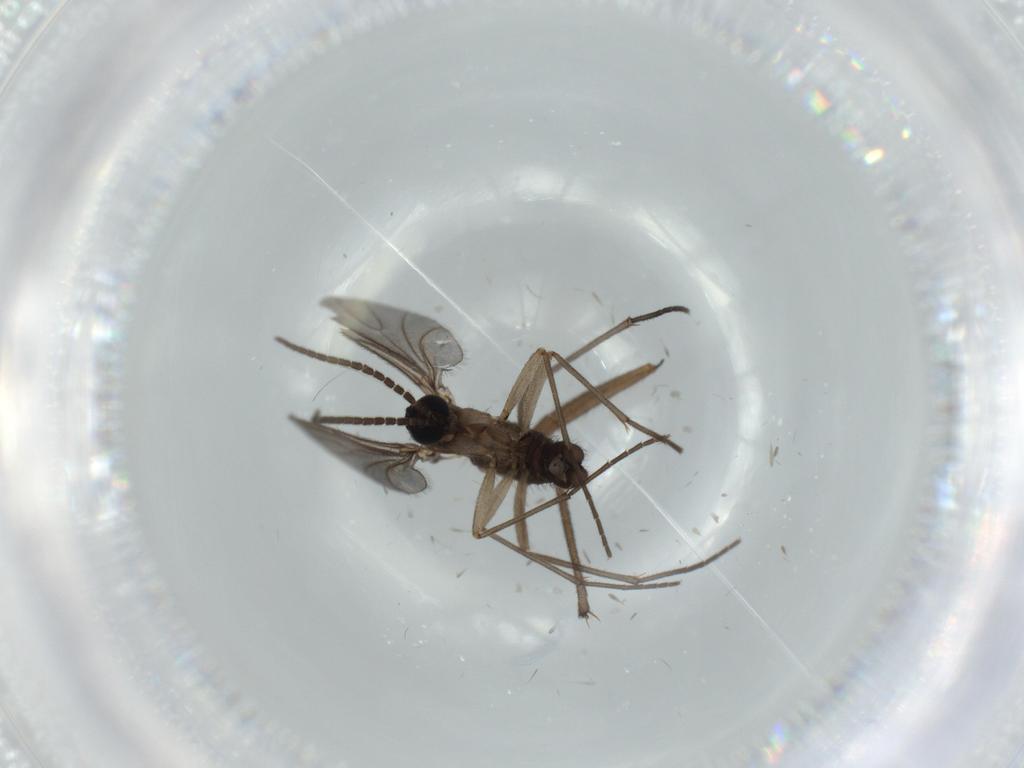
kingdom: Animalia
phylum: Arthropoda
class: Insecta
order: Diptera
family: Sciaridae
